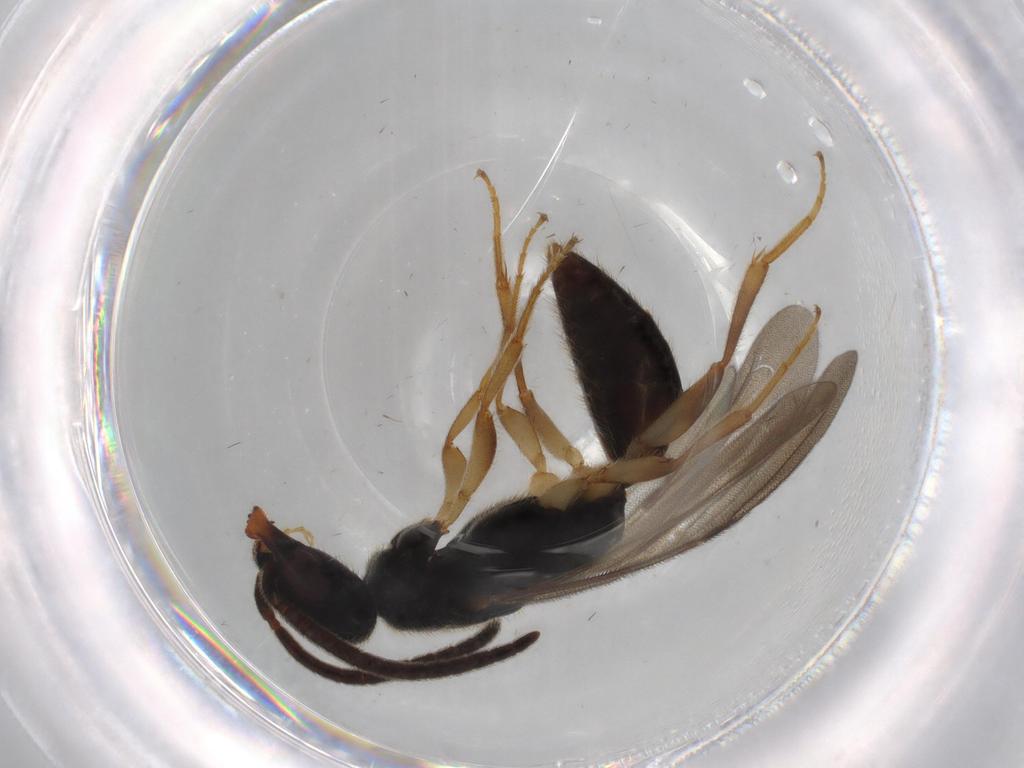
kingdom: Animalia
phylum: Arthropoda
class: Insecta
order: Hymenoptera
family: Bethylidae
